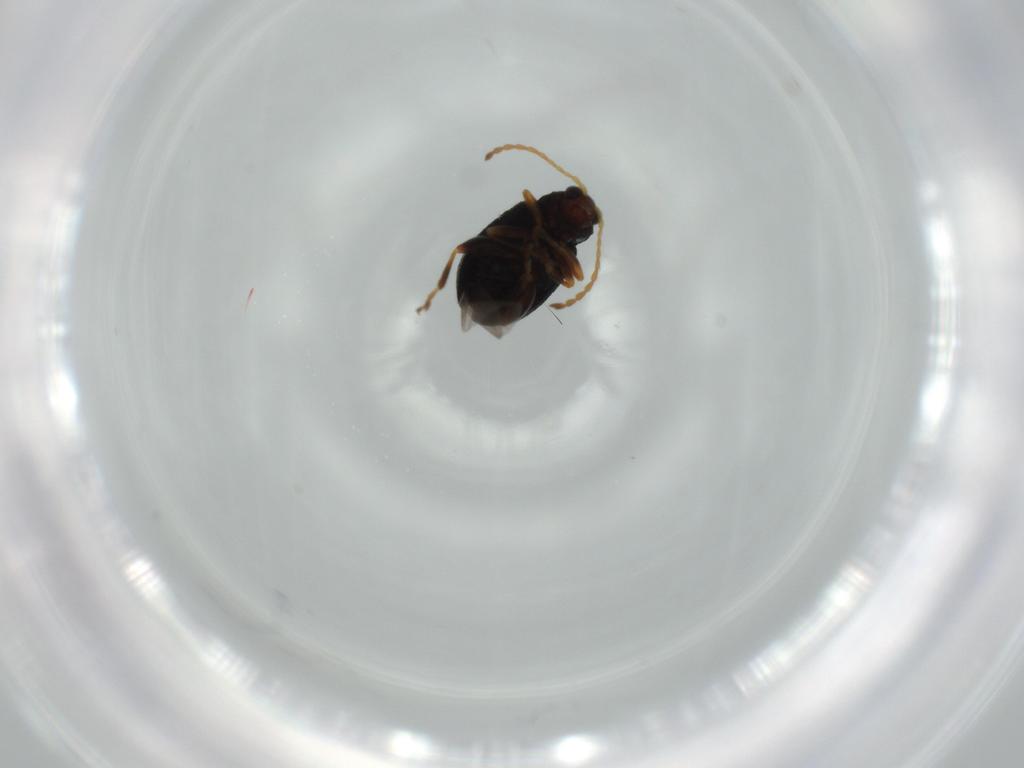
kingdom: Animalia
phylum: Arthropoda
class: Insecta
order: Coleoptera
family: Chrysomelidae
